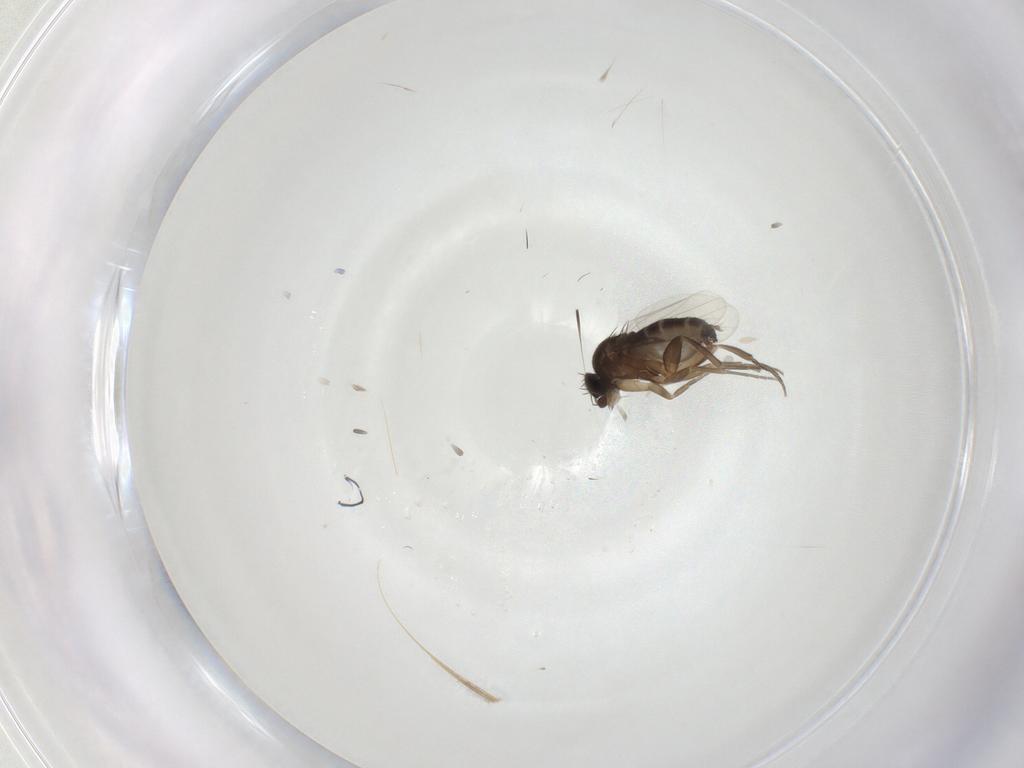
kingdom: Animalia
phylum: Arthropoda
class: Insecta
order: Diptera
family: Phoridae
